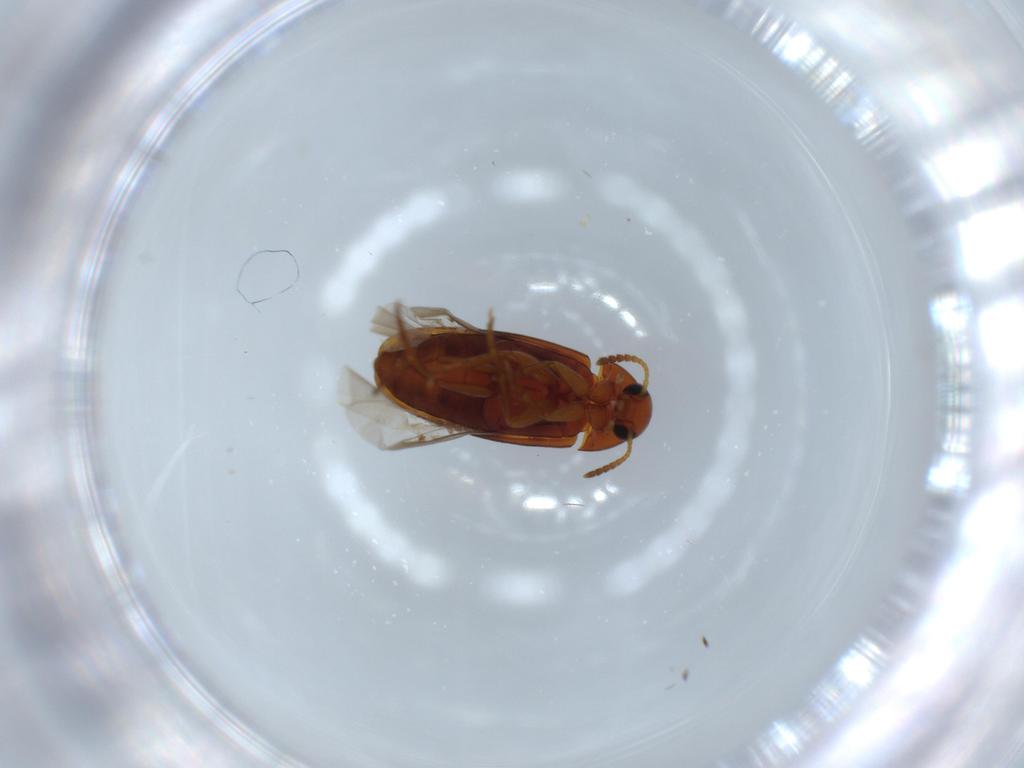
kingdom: Animalia
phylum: Arthropoda
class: Insecta
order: Coleoptera
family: Scraptiidae
